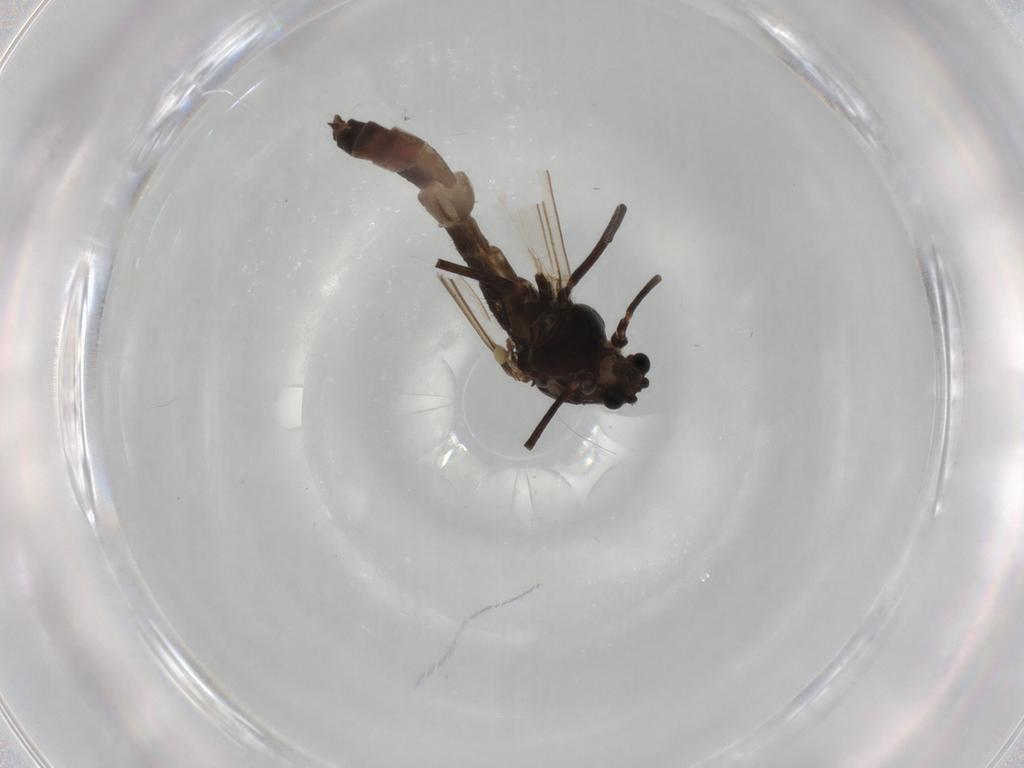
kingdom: Animalia
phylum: Arthropoda
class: Insecta
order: Diptera
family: Chironomidae
